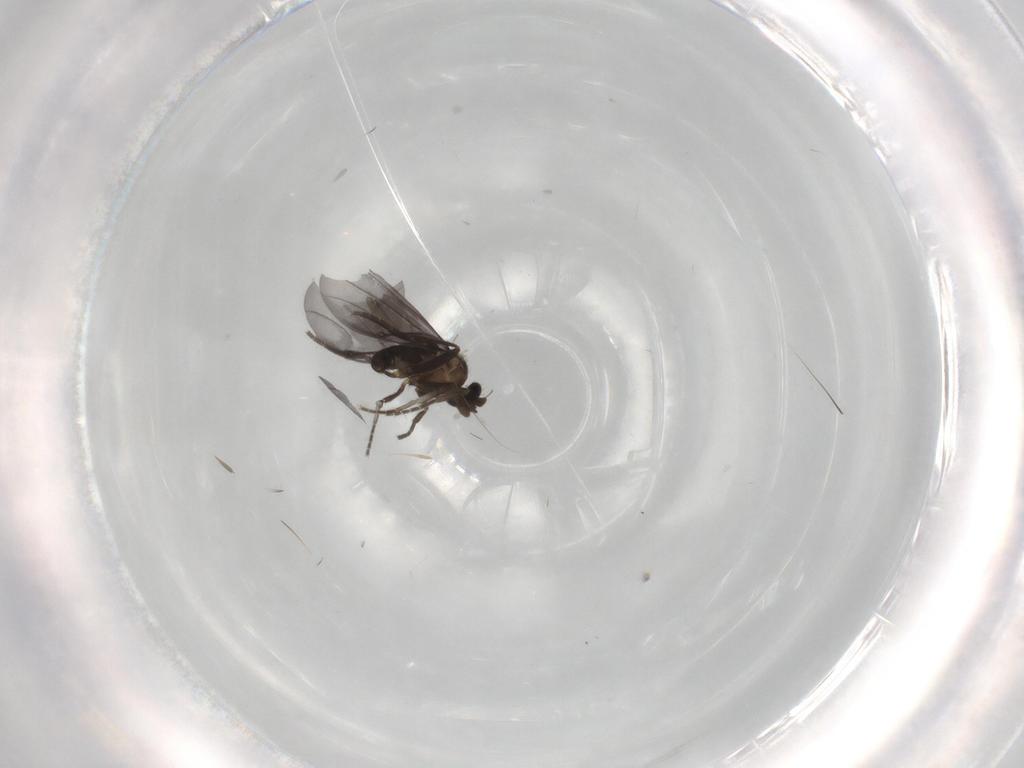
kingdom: Animalia
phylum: Arthropoda
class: Insecta
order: Diptera
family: Phoridae
